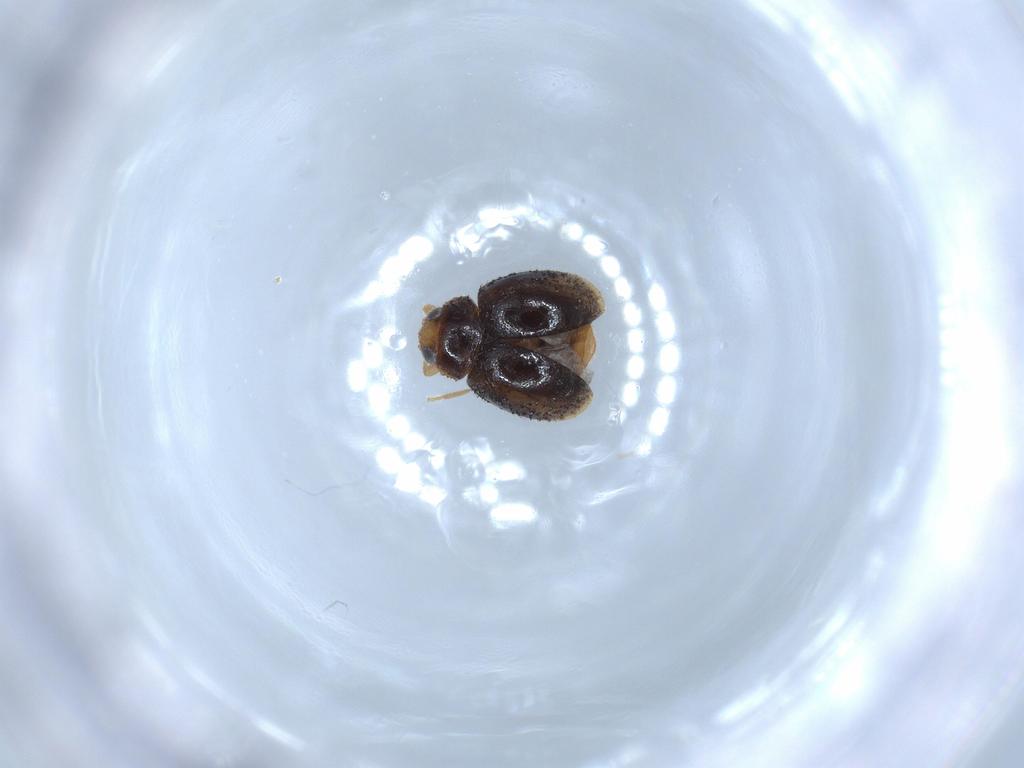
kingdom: Animalia
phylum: Arthropoda
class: Insecta
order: Coleoptera
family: Coccinellidae
